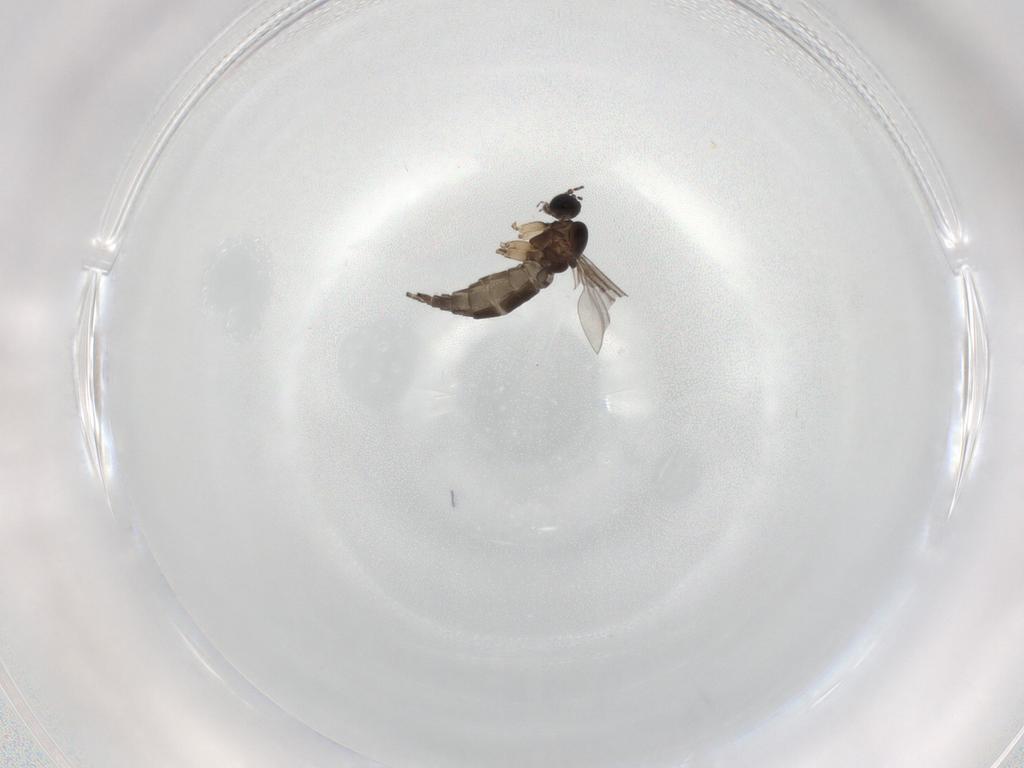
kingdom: Animalia
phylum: Arthropoda
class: Insecta
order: Diptera
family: Sciaridae
